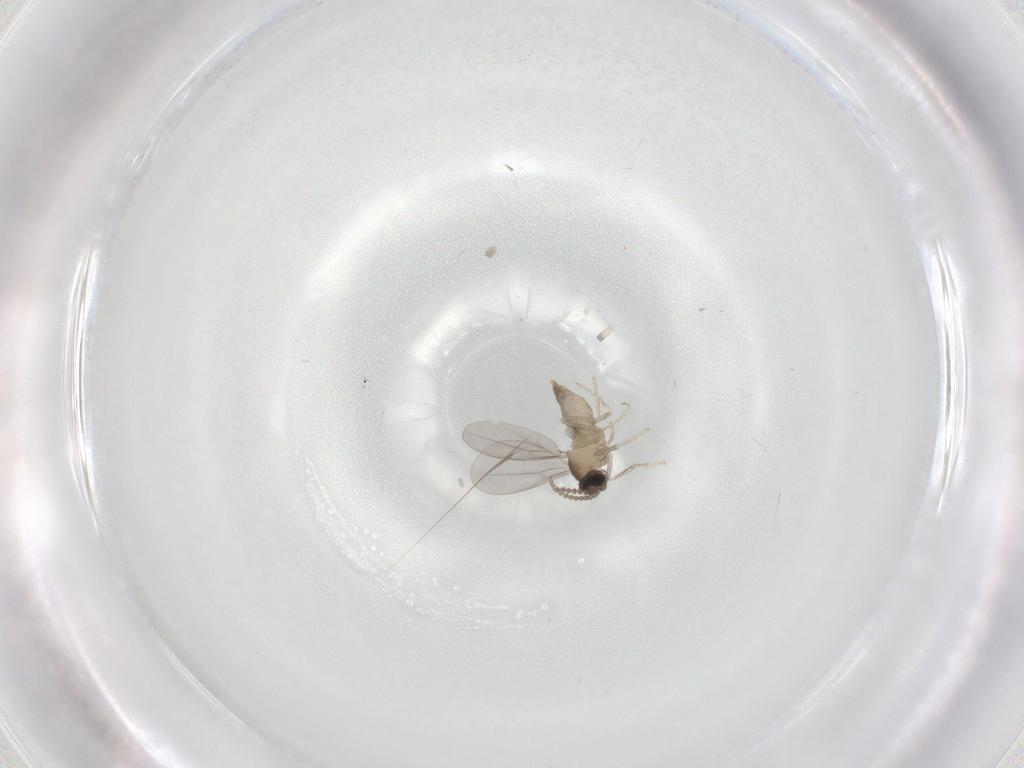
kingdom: Animalia
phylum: Arthropoda
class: Insecta
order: Diptera
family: Cecidomyiidae
